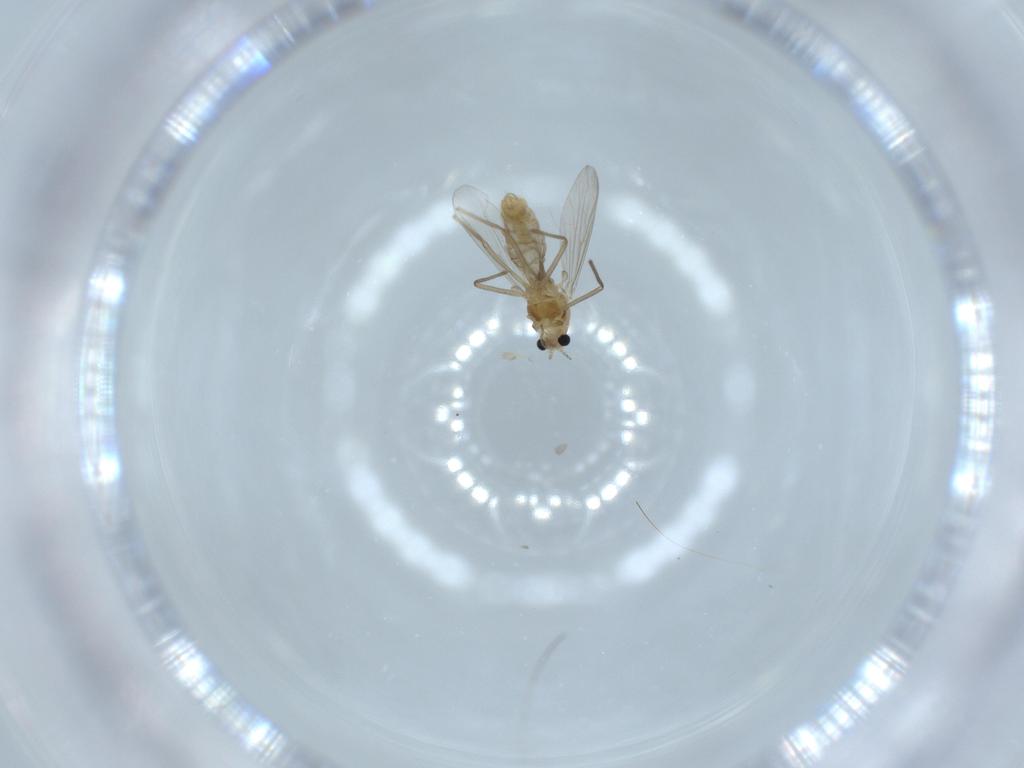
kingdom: Animalia
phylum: Arthropoda
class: Insecta
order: Diptera
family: Chironomidae
